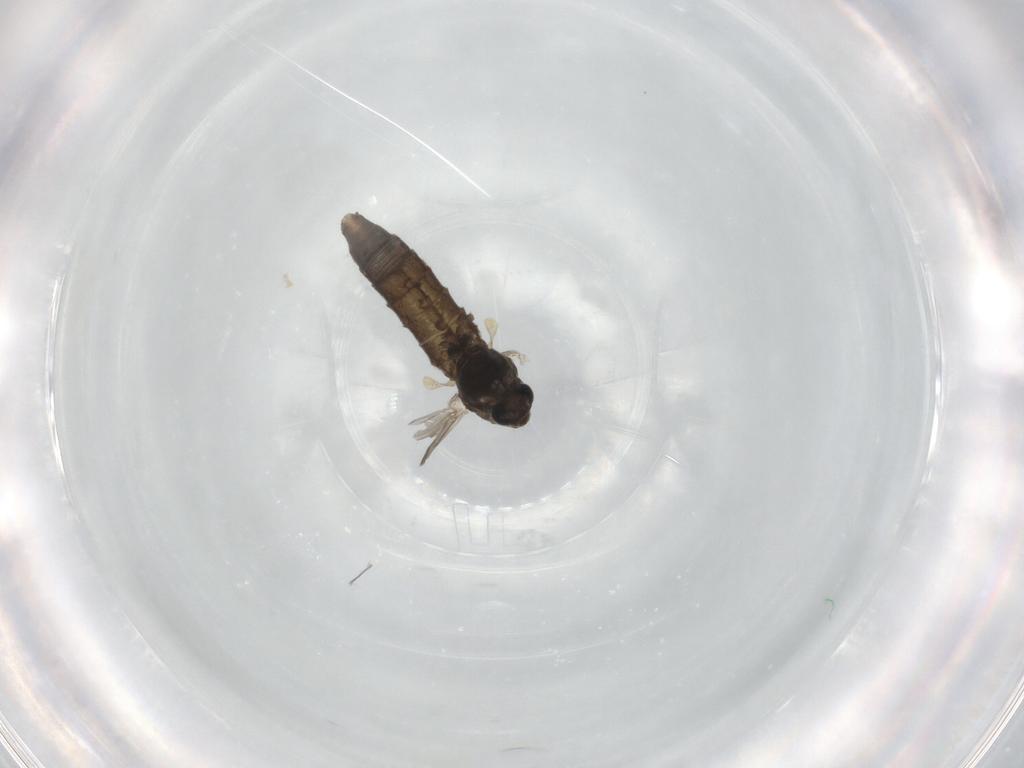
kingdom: Animalia
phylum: Arthropoda
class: Insecta
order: Diptera
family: Chironomidae
